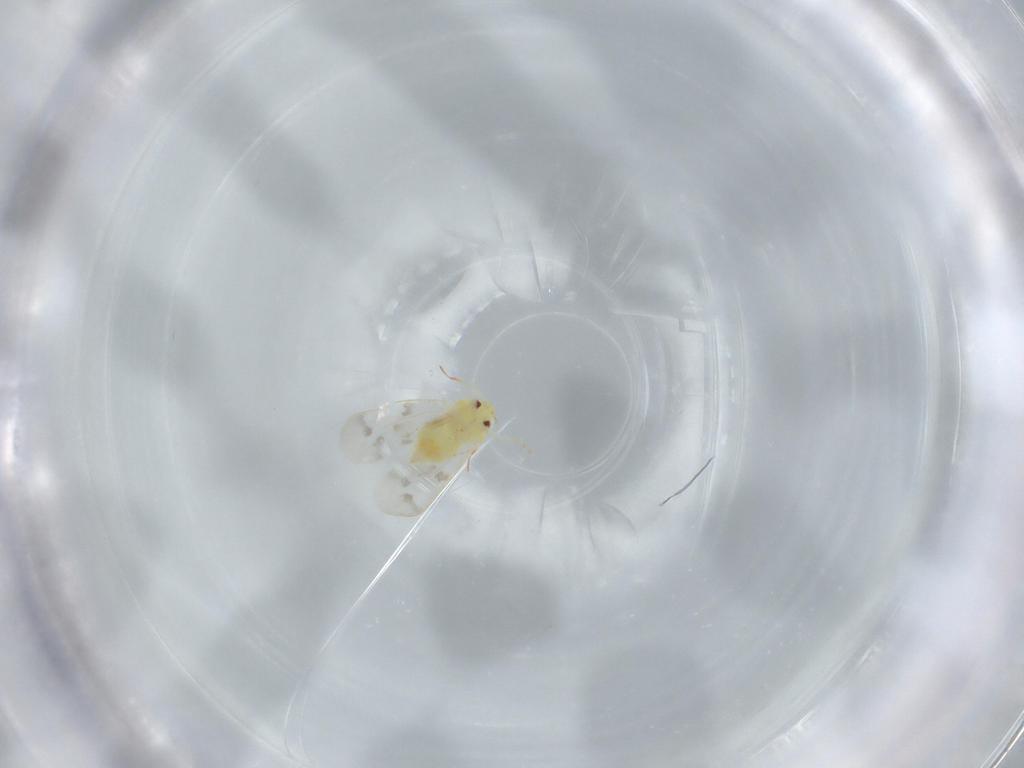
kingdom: Animalia
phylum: Arthropoda
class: Insecta
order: Hemiptera
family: Aleyrodidae
